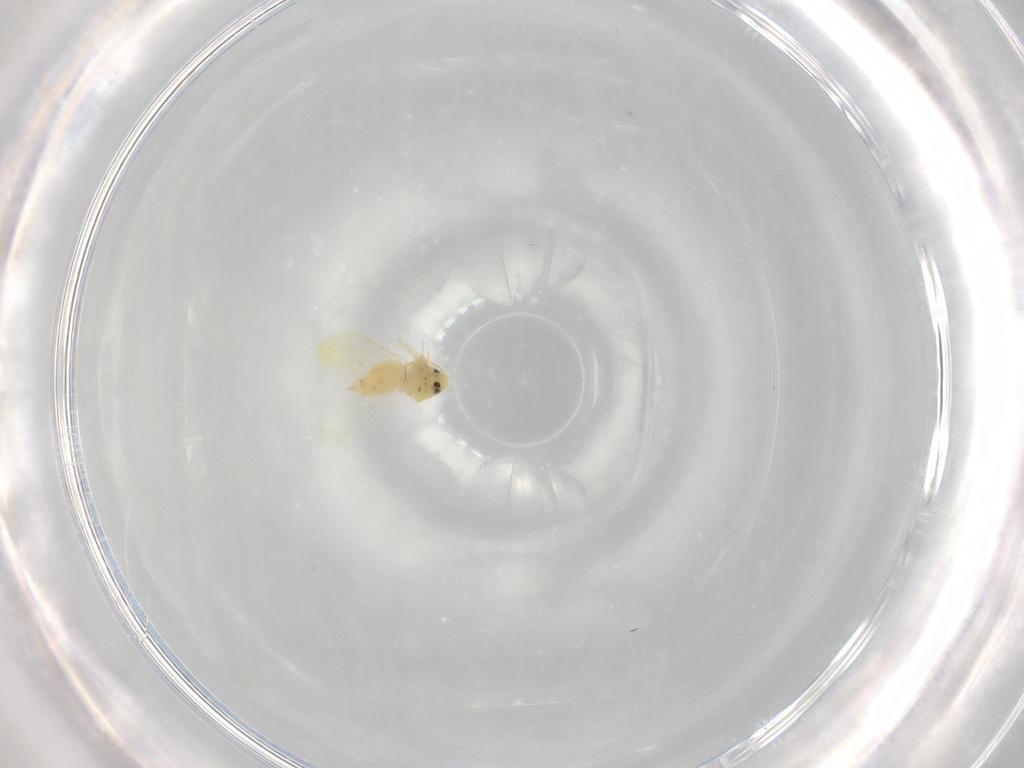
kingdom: Animalia
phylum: Arthropoda
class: Insecta
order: Hemiptera
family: Aleyrodidae
